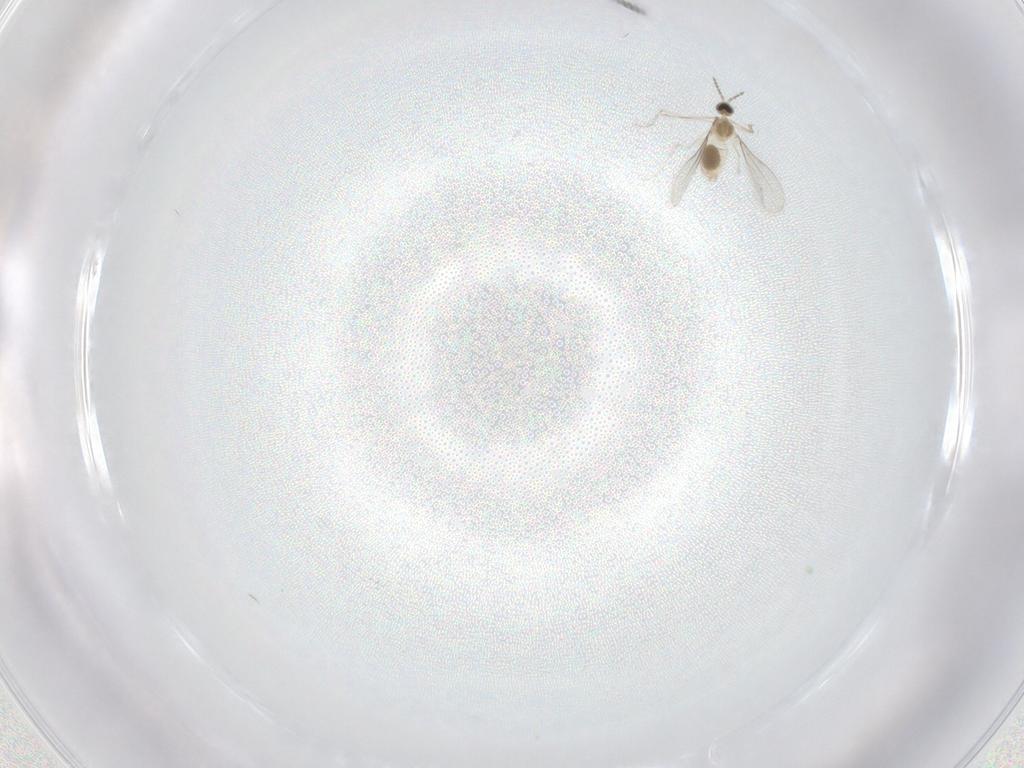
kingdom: Animalia
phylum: Arthropoda
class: Insecta
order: Diptera
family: Cecidomyiidae
